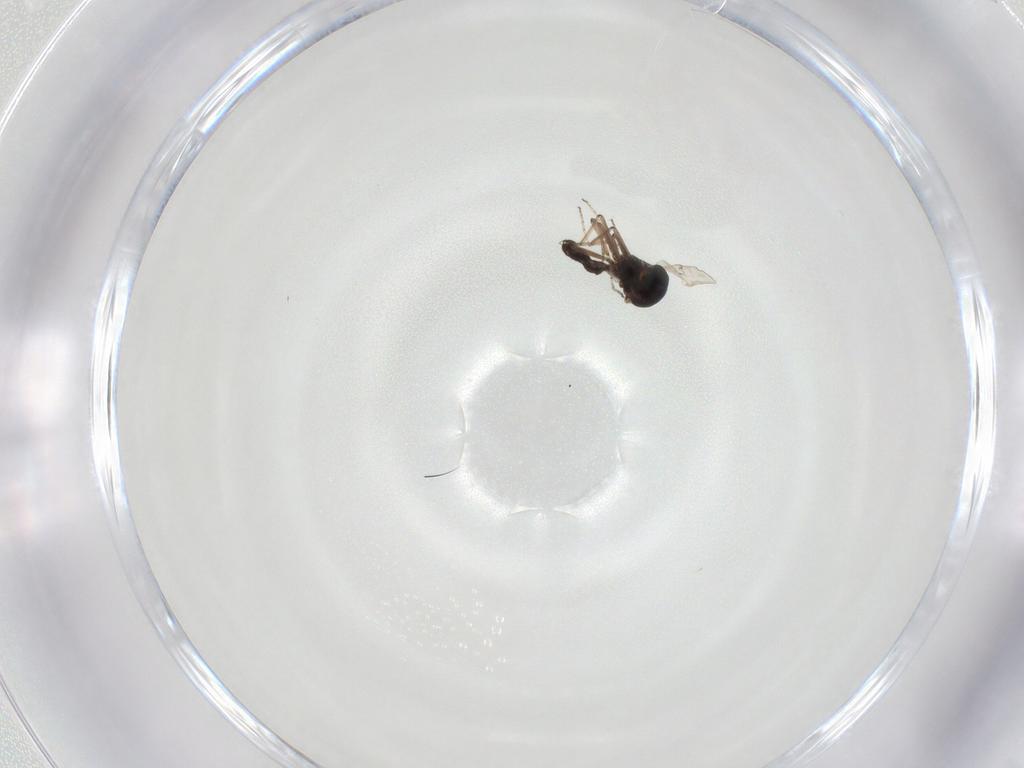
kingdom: Animalia
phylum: Arthropoda
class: Insecta
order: Diptera
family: Ceratopogonidae
